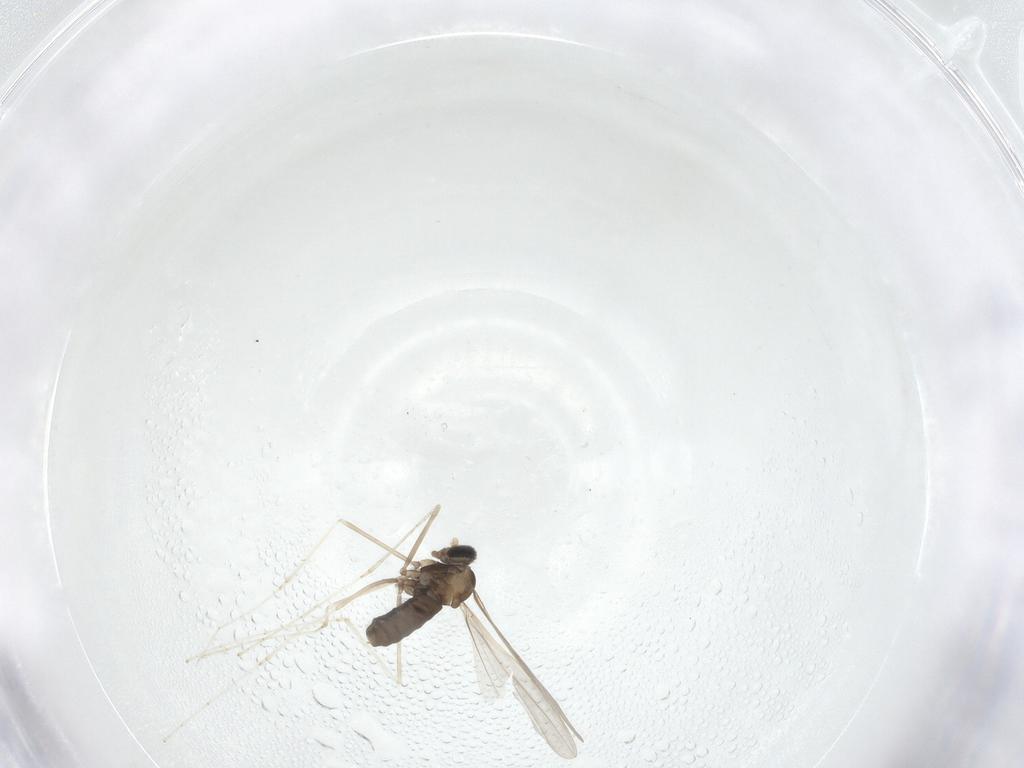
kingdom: Animalia
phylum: Arthropoda
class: Insecta
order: Diptera
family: Cecidomyiidae
